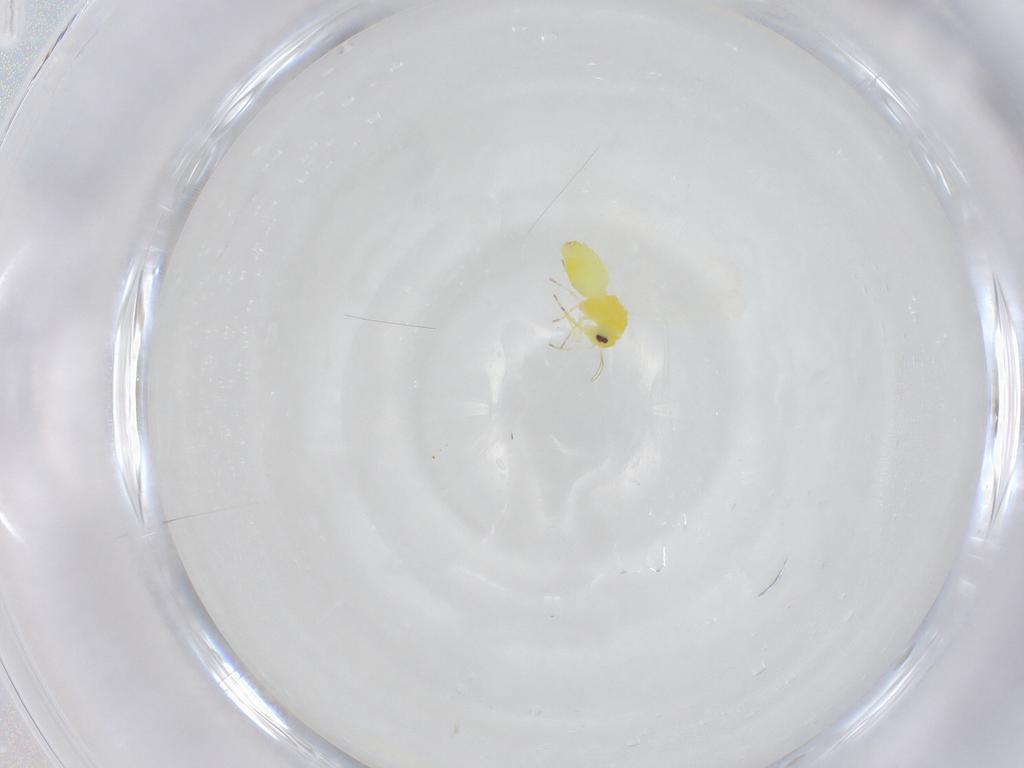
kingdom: Animalia
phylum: Arthropoda
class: Insecta
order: Hemiptera
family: Aleyrodidae
